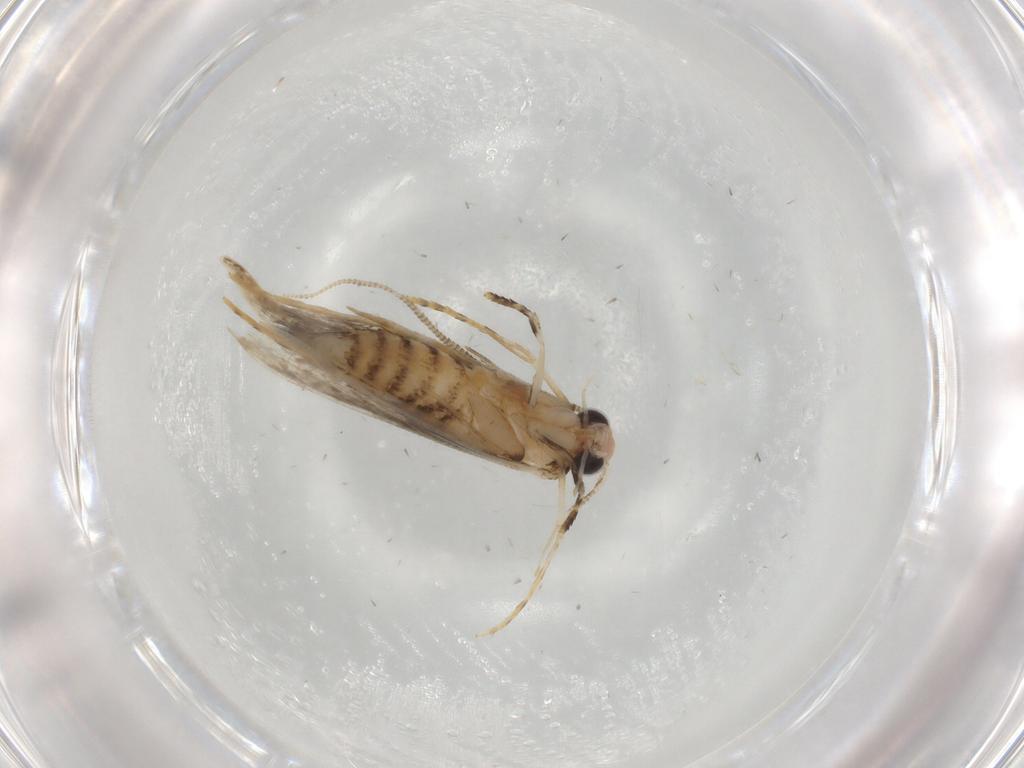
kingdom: Animalia
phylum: Arthropoda
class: Insecta
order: Lepidoptera
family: Tineidae
